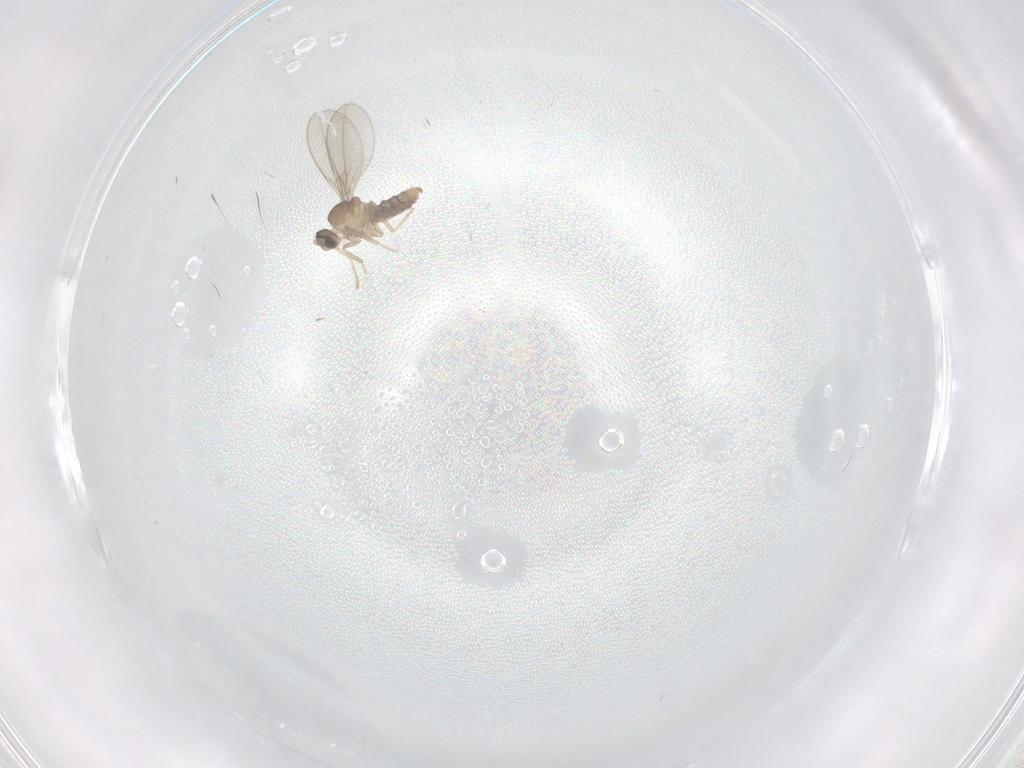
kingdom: Animalia
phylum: Arthropoda
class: Insecta
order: Diptera
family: Cecidomyiidae
